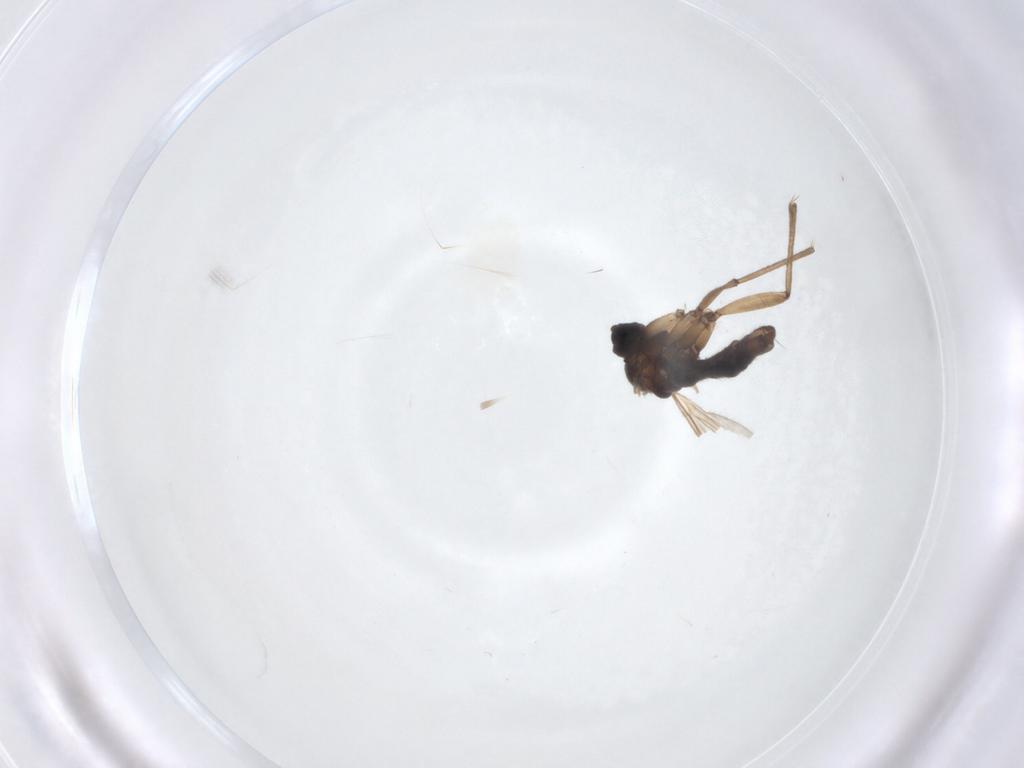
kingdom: Animalia
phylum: Arthropoda
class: Insecta
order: Diptera
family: Sciaridae
